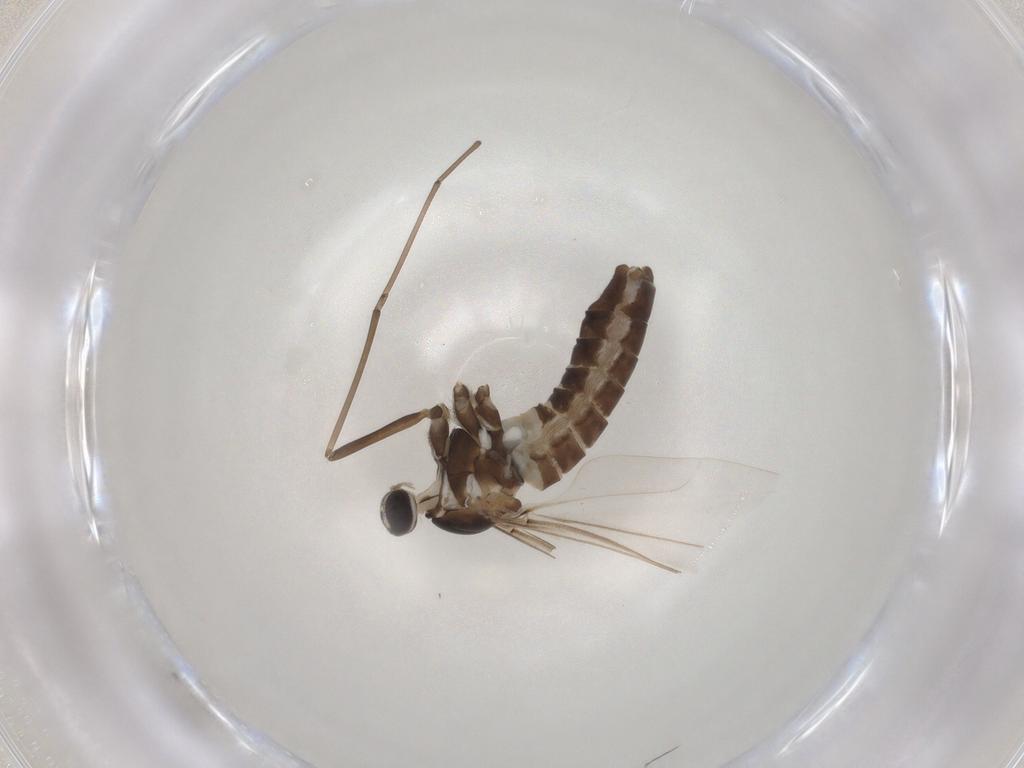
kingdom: Animalia
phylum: Arthropoda
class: Insecta
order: Diptera
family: Cecidomyiidae
